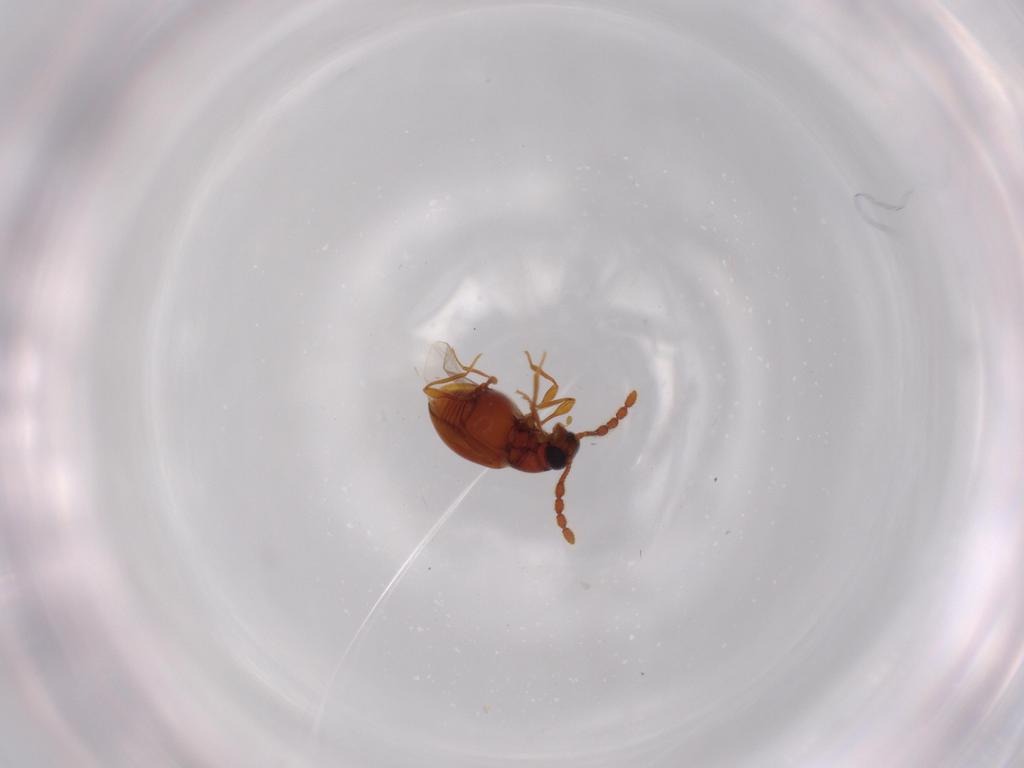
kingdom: Animalia
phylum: Arthropoda
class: Insecta
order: Coleoptera
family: Staphylinidae
